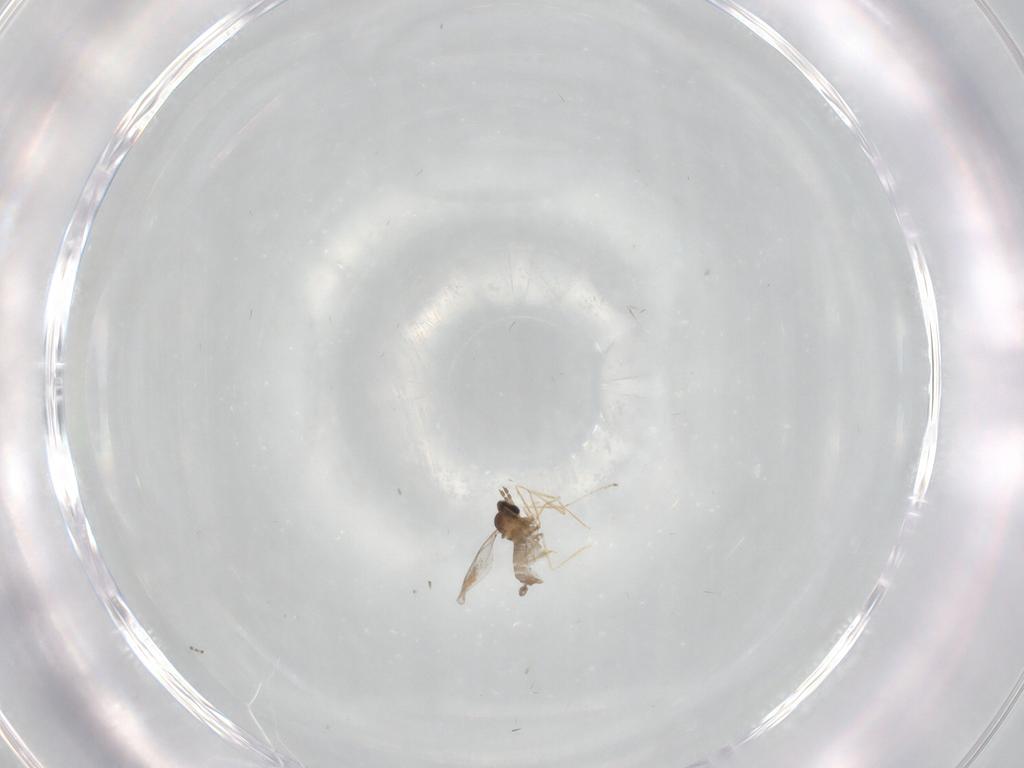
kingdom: Animalia
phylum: Arthropoda
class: Insecta
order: Diptera
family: Cecidomyiidae
